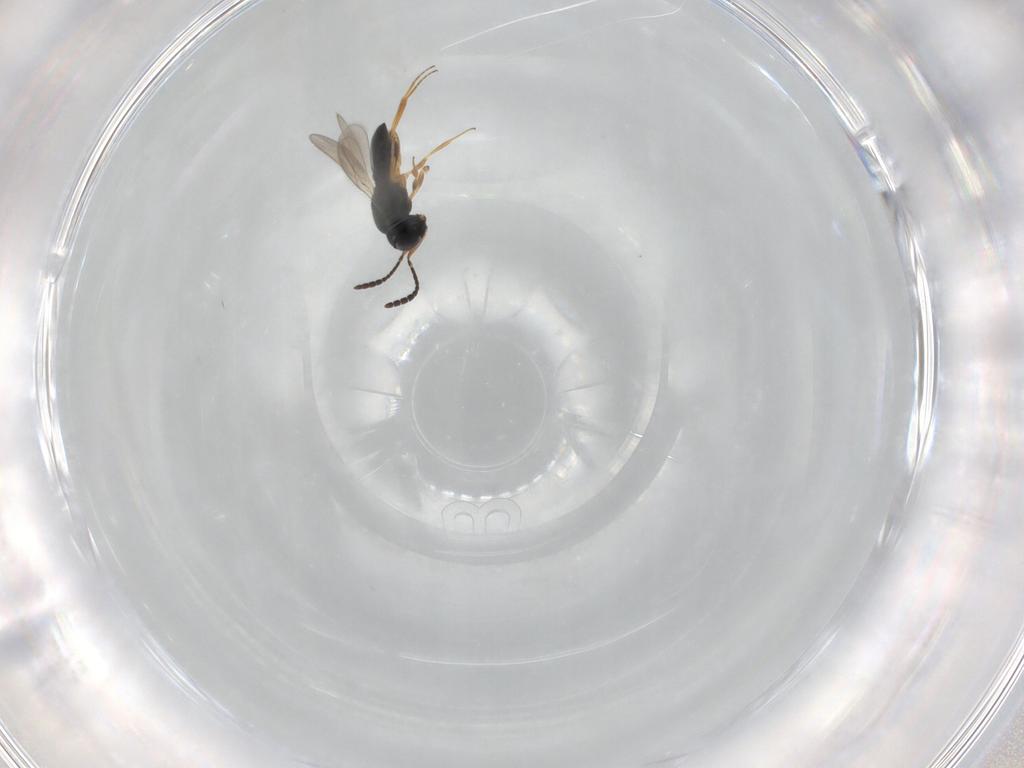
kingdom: Animalia
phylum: Arthropoda
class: Insecta
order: Hymenoptera
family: Scelionidae
